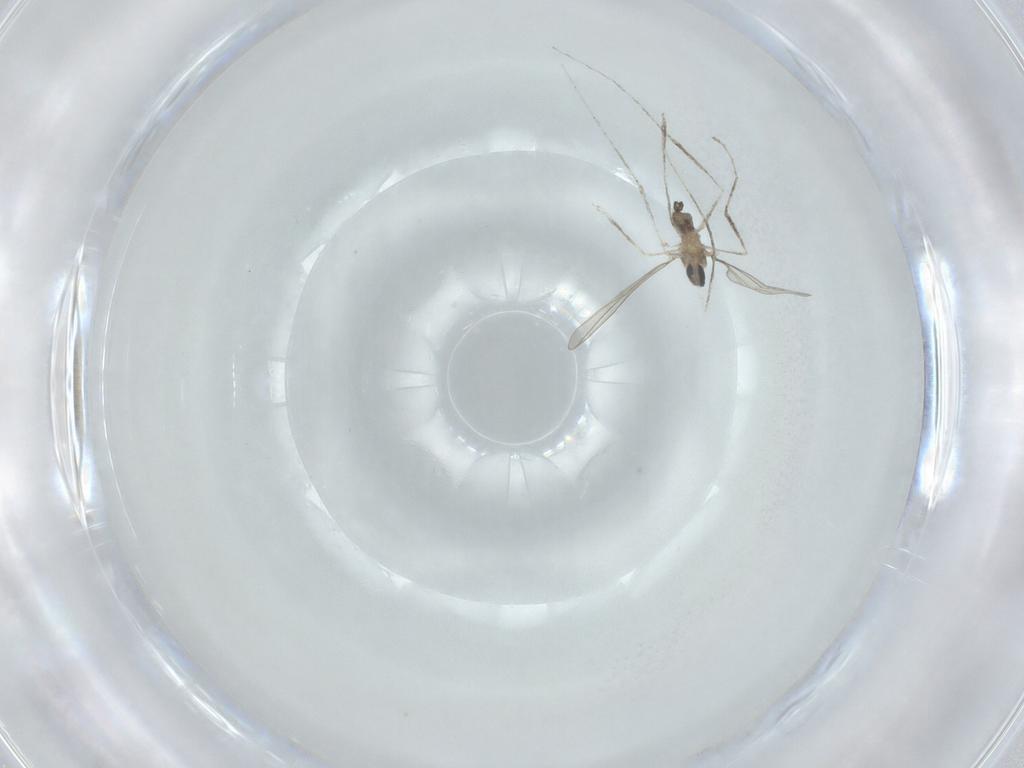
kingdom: Animalia
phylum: Arthropoda
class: Insecta
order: Diptera
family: Cecidomyiidae
